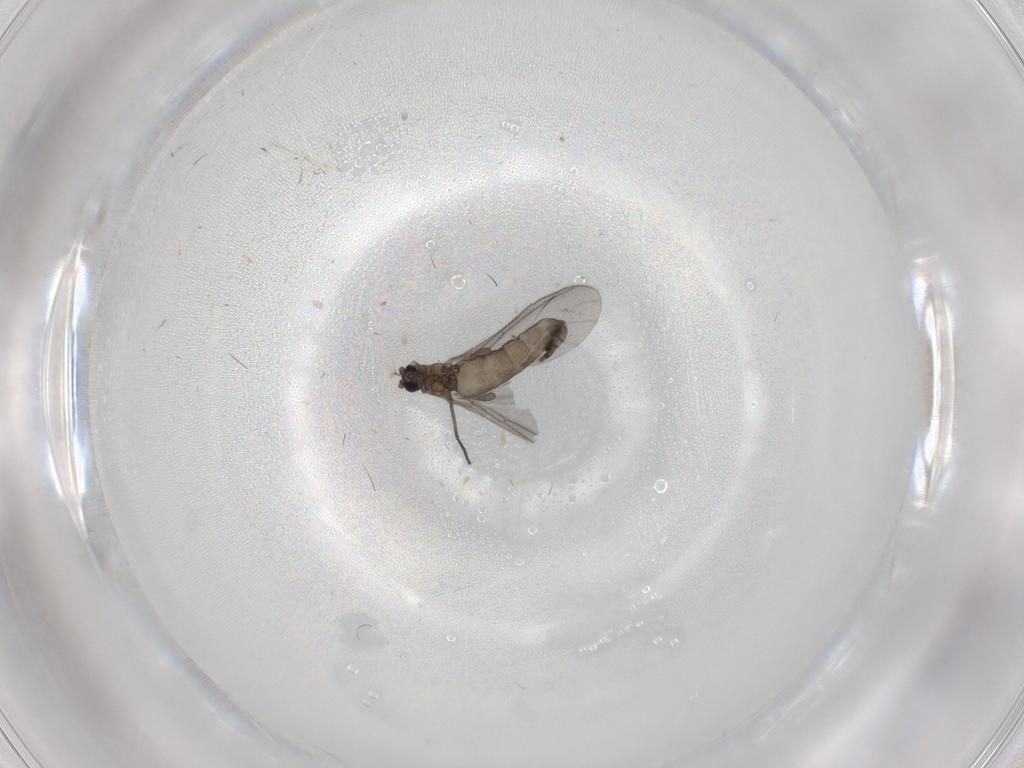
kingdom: Animalia
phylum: Arthropoda
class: Insecta
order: Diptera
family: Sciaridae
